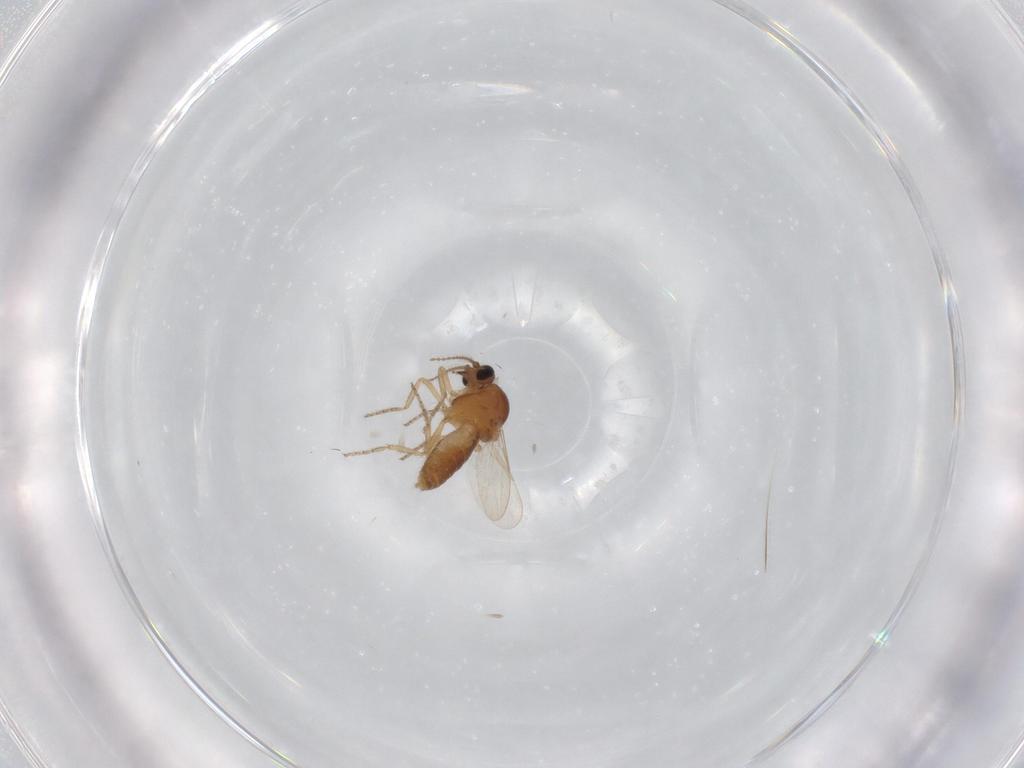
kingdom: Animalia
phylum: Arthropoda
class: Insecta
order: Diptera
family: Ceratopogonidae
